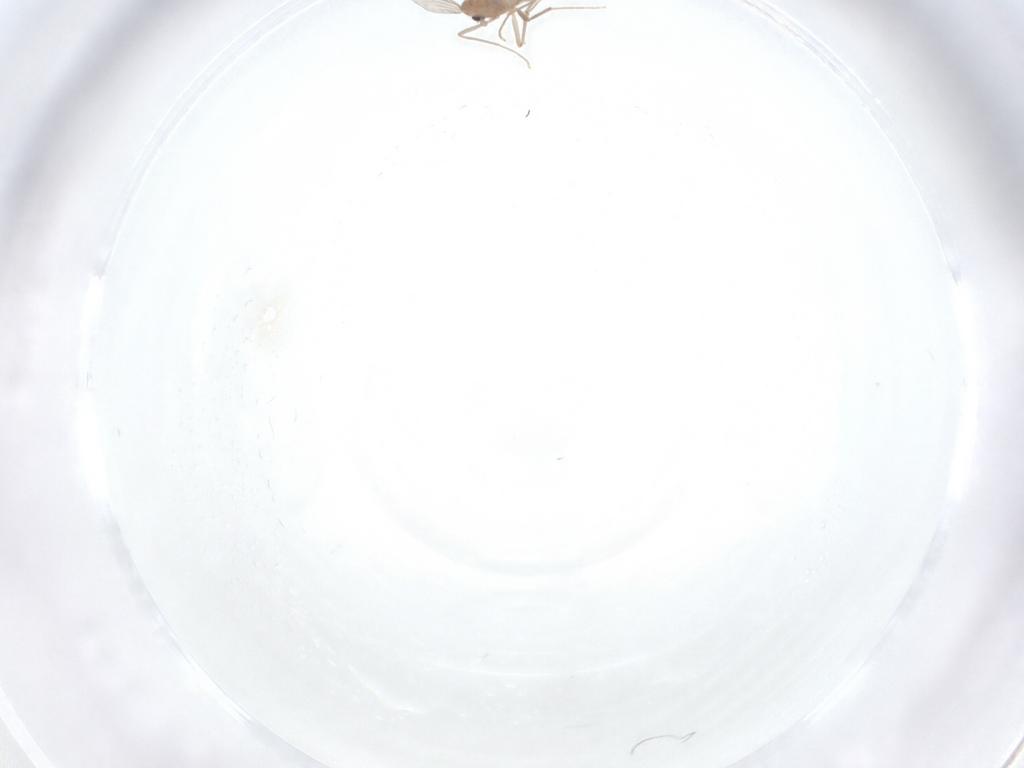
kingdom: Animalia
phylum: Arthropoda
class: Insecta
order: Diptera
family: Chironomidae
